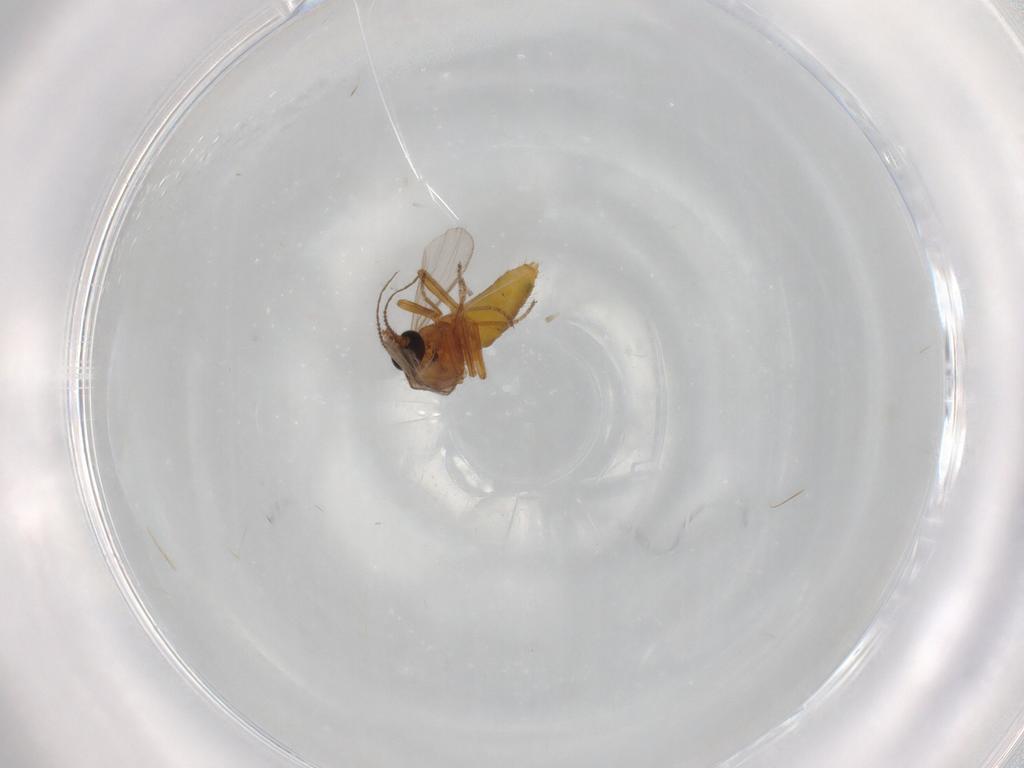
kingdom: Animalia
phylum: Arthropoda
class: Insecta
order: Diptera
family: Ceratopogonidae
